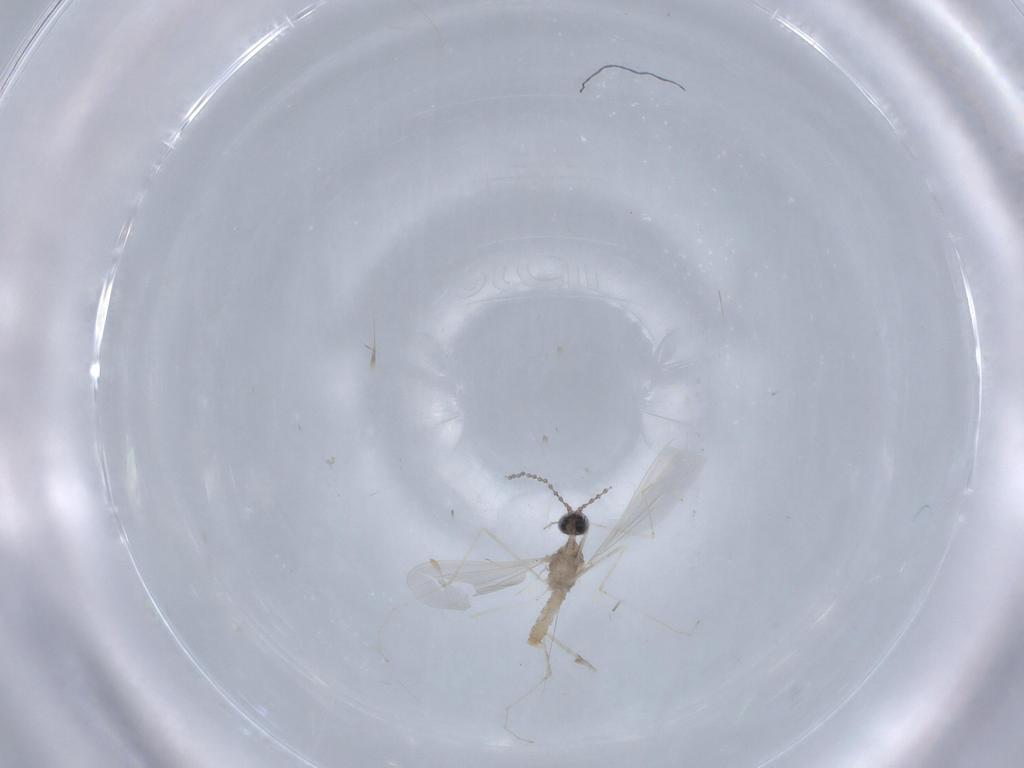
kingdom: Animalia
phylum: Arthropoda
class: Insecta
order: Diptera
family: Cecidomyiidae
